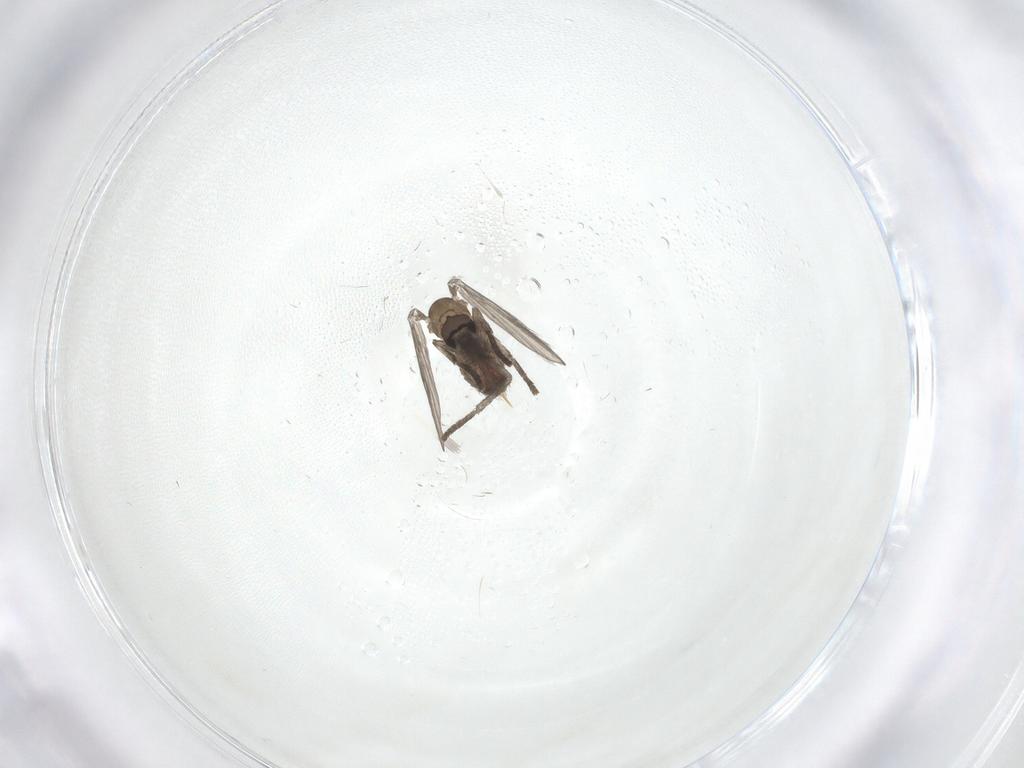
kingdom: Animalia
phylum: Arthropoda
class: Insecta
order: Diptera
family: Psychodidae
